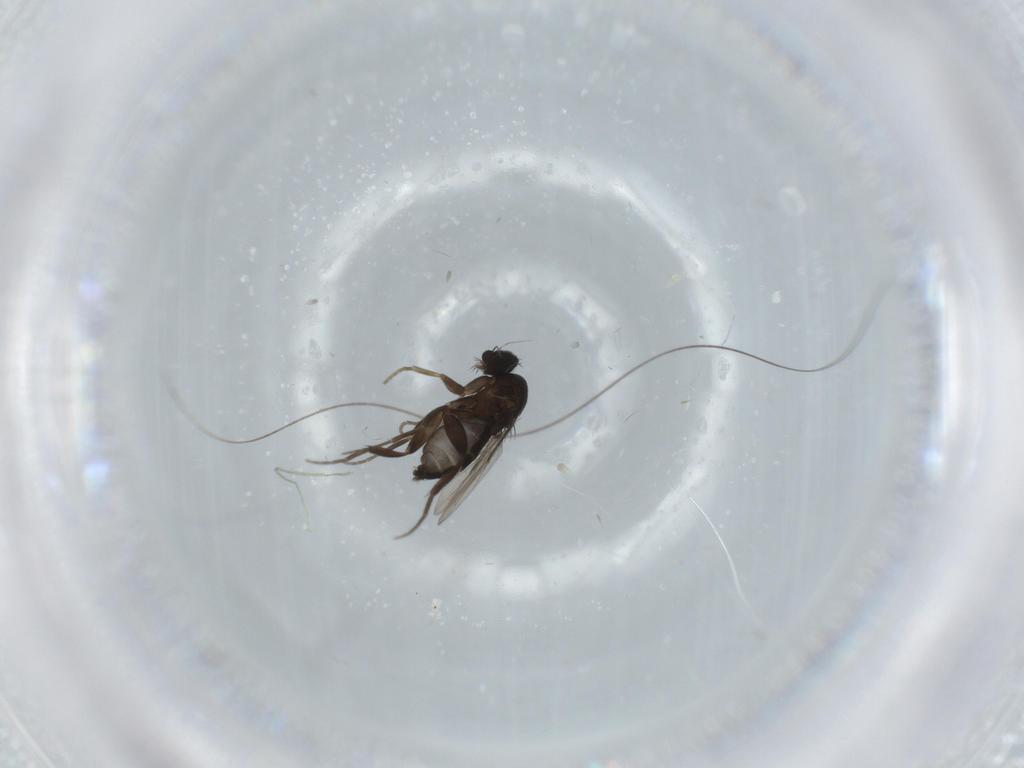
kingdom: Animalia
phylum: Arthropoda
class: Insecta
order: Diptera
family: Phoridae
